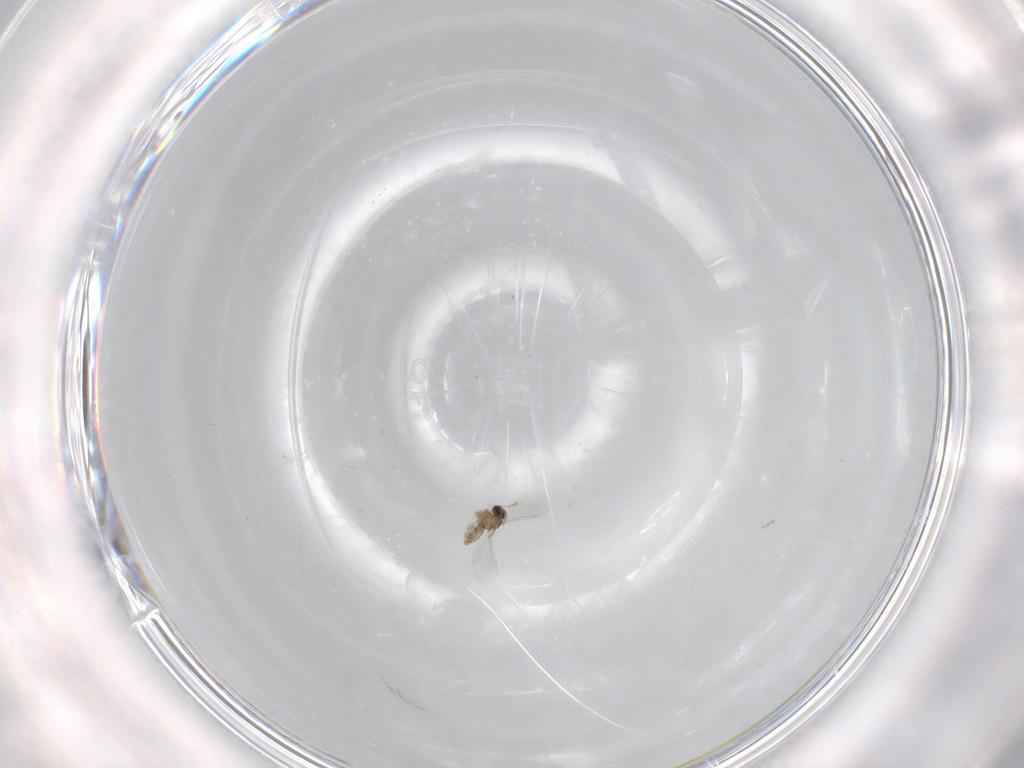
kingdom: Animalia
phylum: Arthropoda
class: Insecta
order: Diptera
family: Cecidomyiidae
